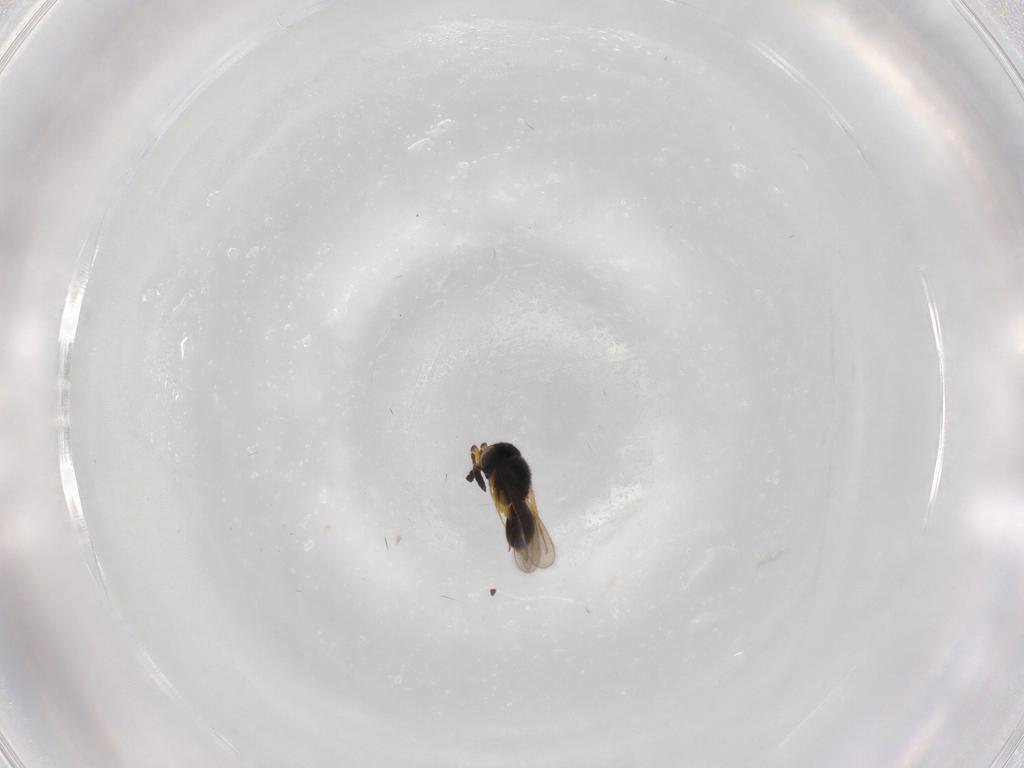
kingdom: Animalia
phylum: Arthropoda
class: Insecta
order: Hymenoptera
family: Scelionidae
